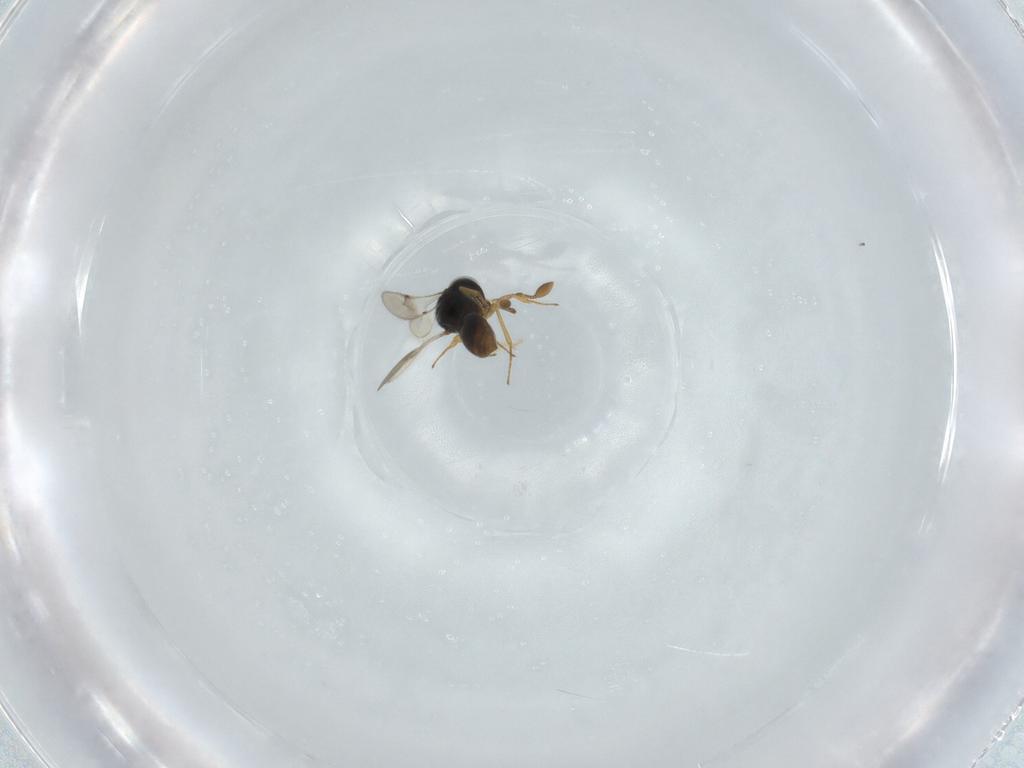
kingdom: Animalia
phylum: Arthropoda
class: Insecta
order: Hymenoptera
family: Scelionidae
